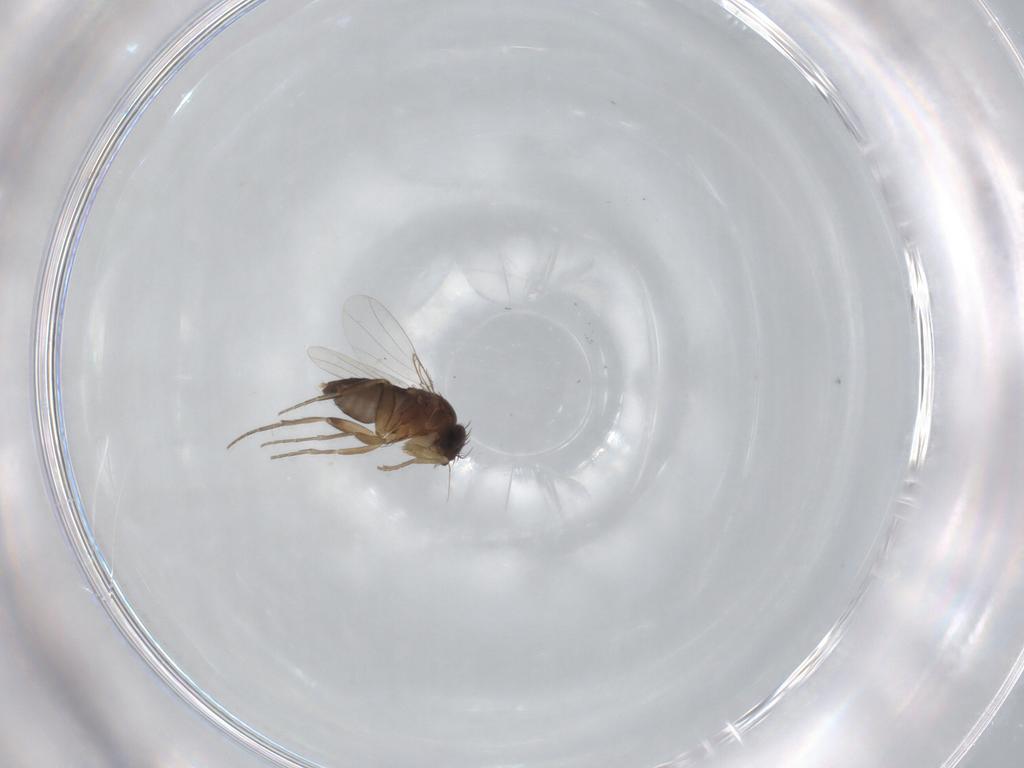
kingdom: Animalia
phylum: Arthropoda
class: Insecta
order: Diptera
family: Phoridae
